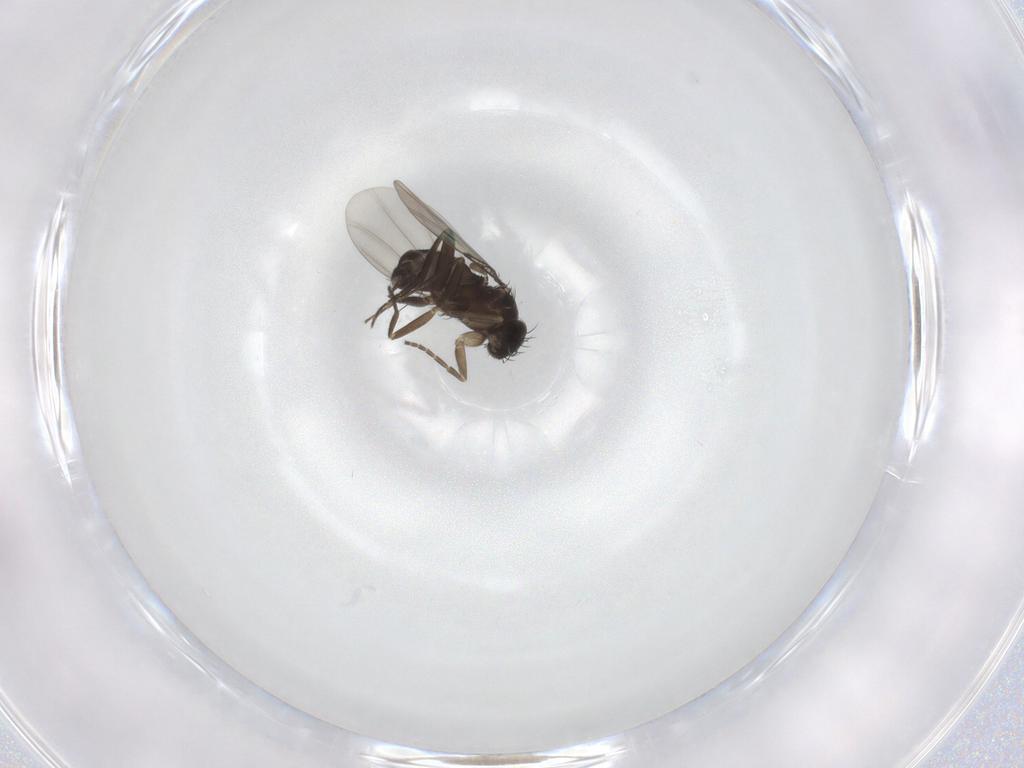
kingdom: Animalia
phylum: Arthropoda
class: Insecta
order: Diptera
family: Phoridae
